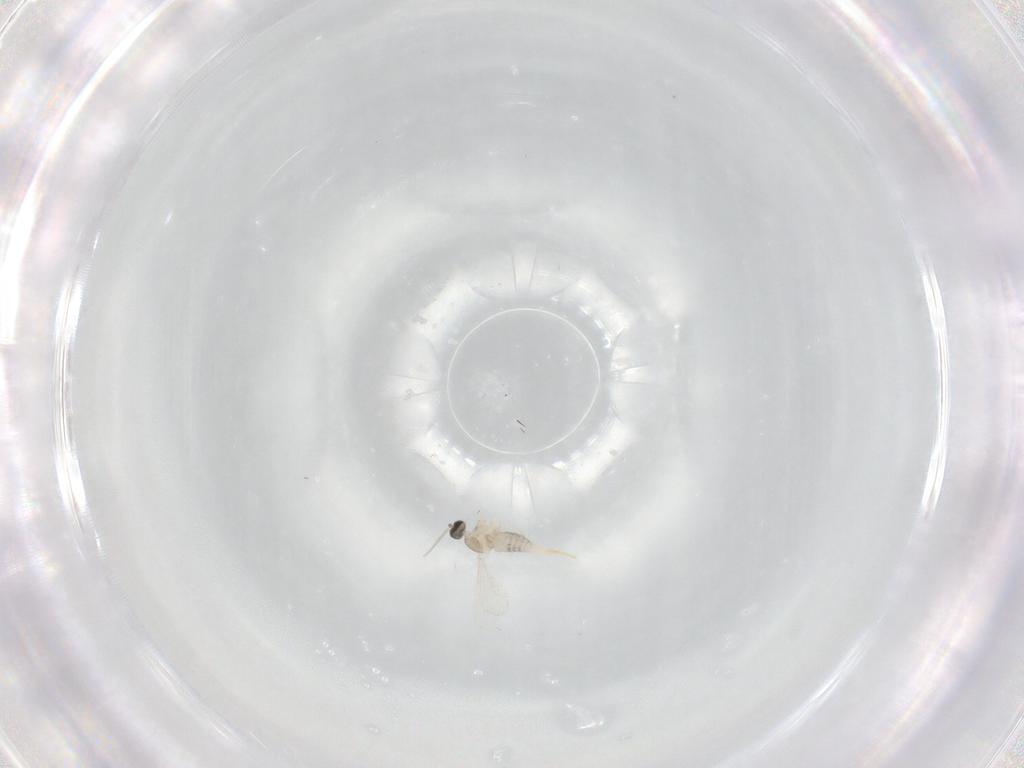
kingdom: Animalia
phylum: Arthropoda
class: Insecta
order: Diptera
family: Cecidomyiidae
